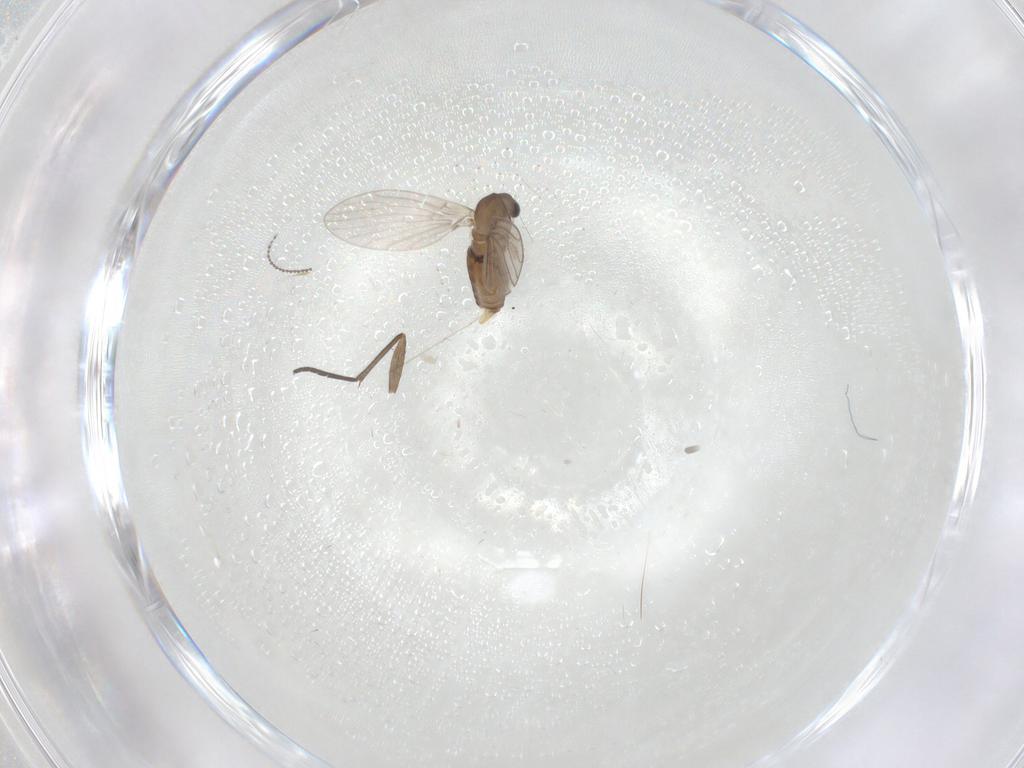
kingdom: Animalia
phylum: Arthropoda
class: Insecta
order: Diptera
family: Cecidomyiidae
